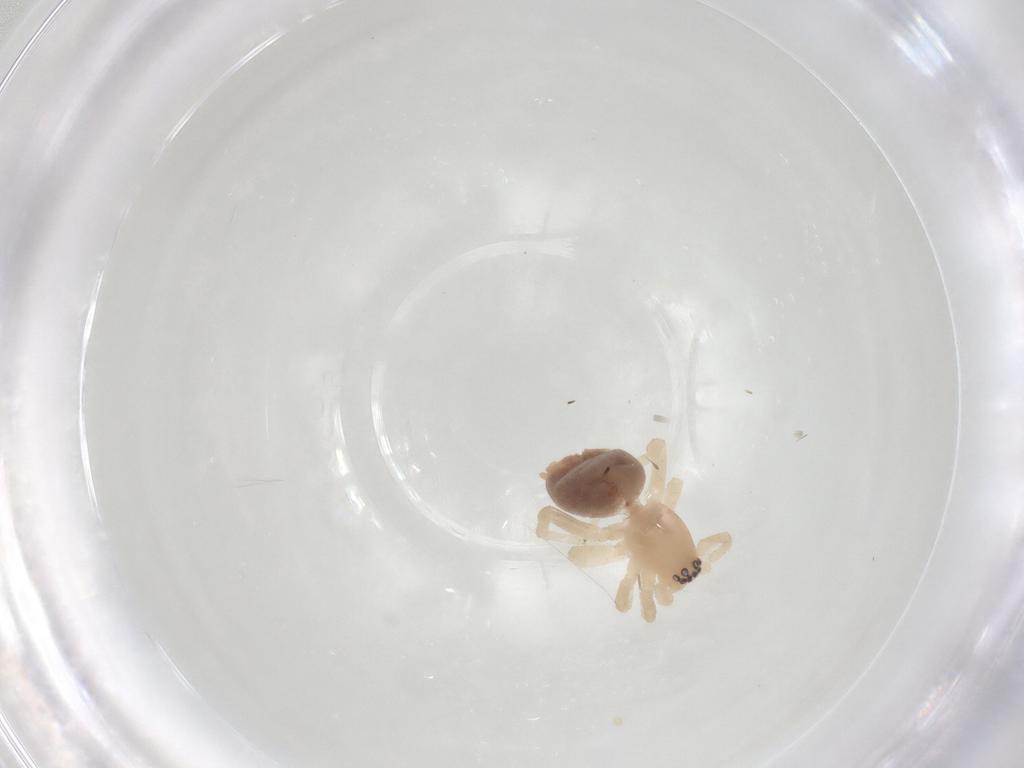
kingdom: Animalia
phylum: Arthropoda
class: Arachnida
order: Araneae
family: Clubionidae
